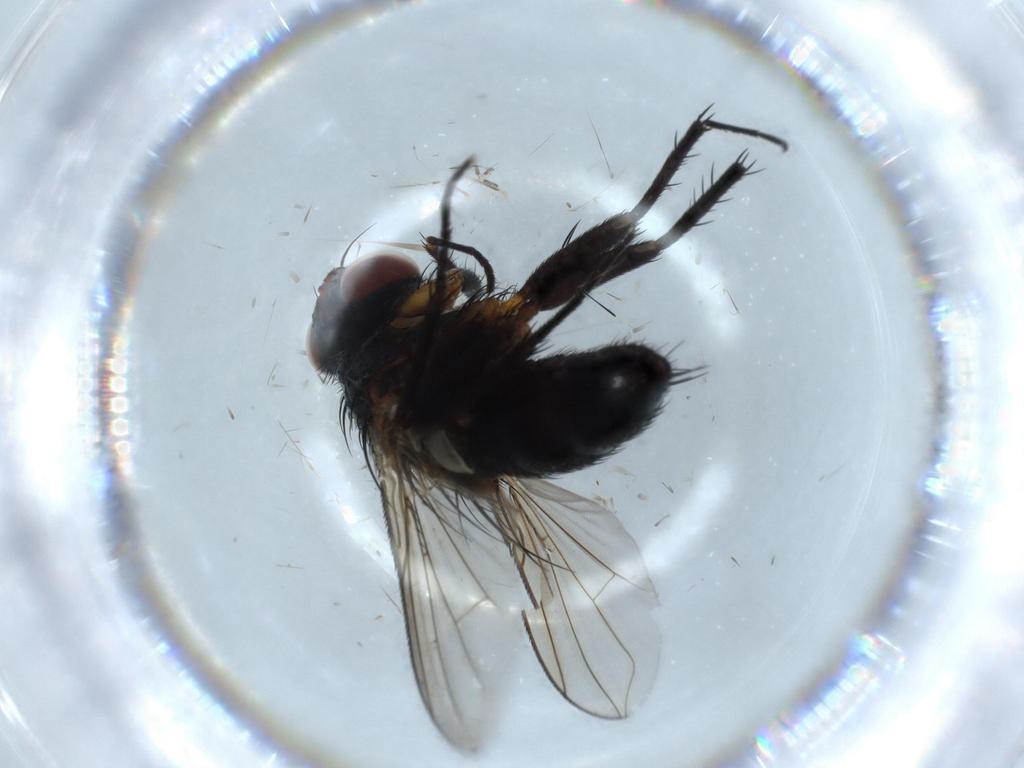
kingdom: Animalia
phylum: Arthropoda
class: Insecta
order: Diptera
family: Tachinidae
